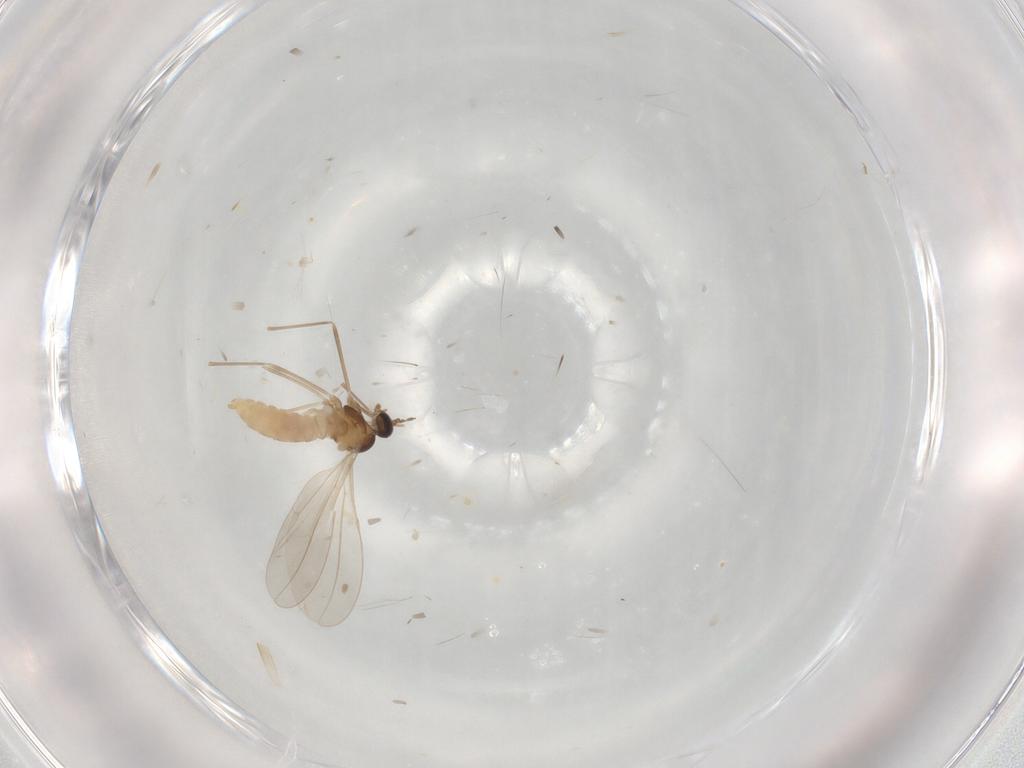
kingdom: Animalia
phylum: Arthropoda
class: Insecta
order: Diptera
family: Cecidomyiidae
